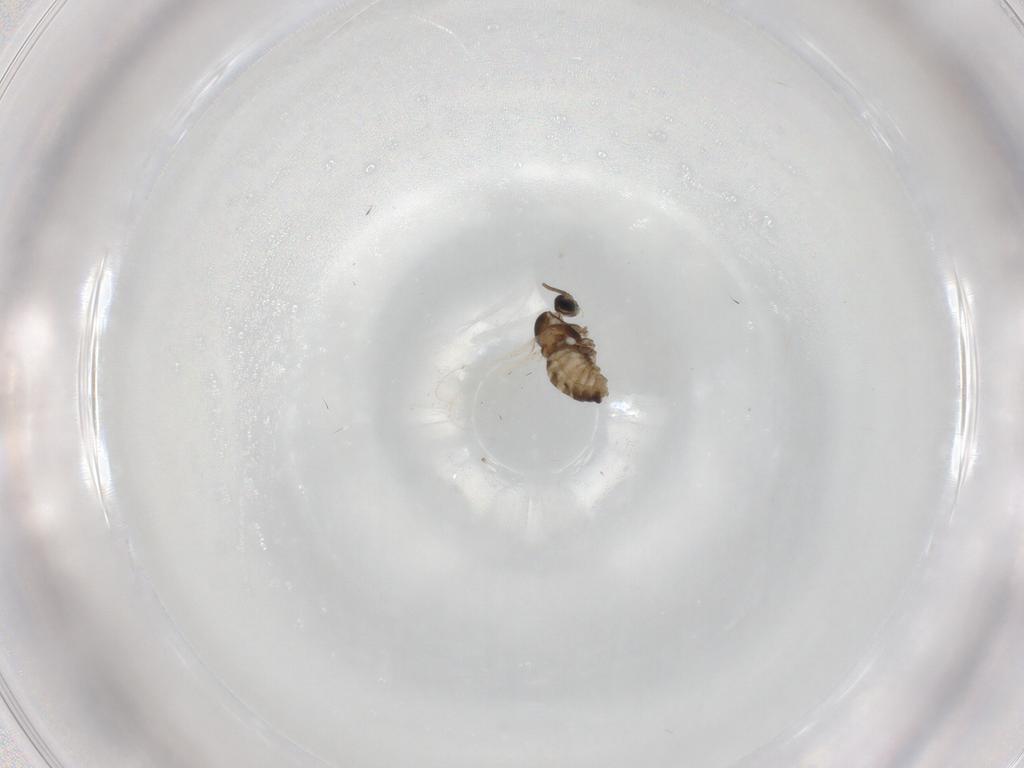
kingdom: Animalia
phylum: Arthropoda
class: Insecta
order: Diptera
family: Cecidomyiidae
